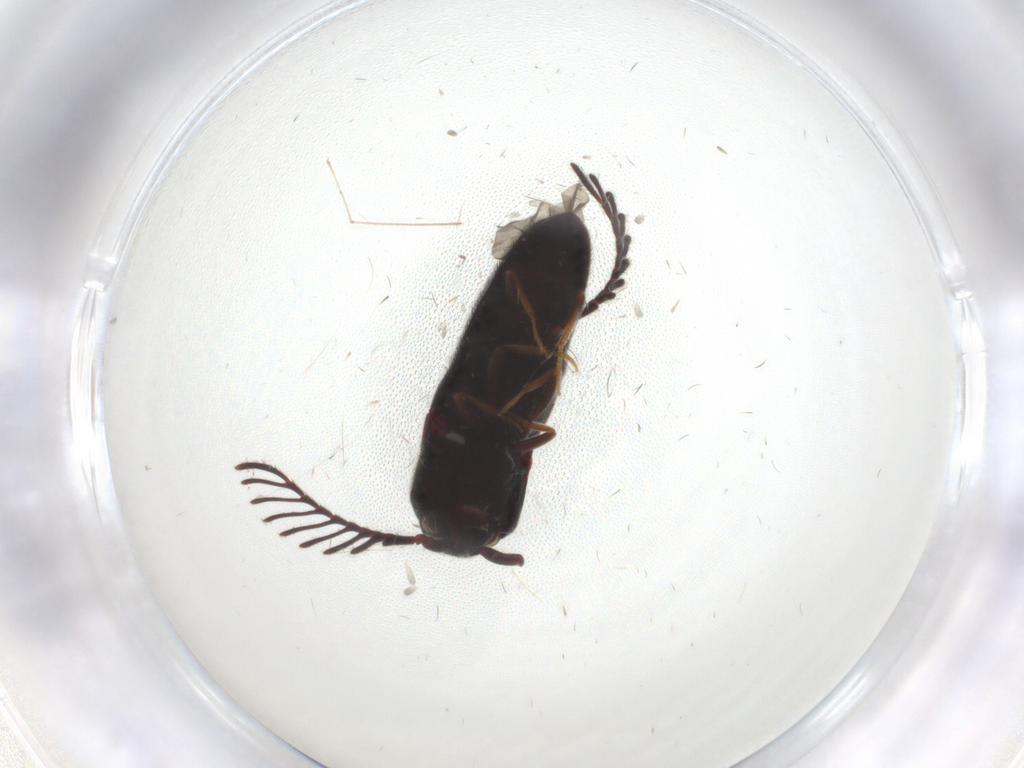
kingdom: Animalia
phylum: Arthropoda
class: Insecta
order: Coleoptera
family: Eucnemidae
